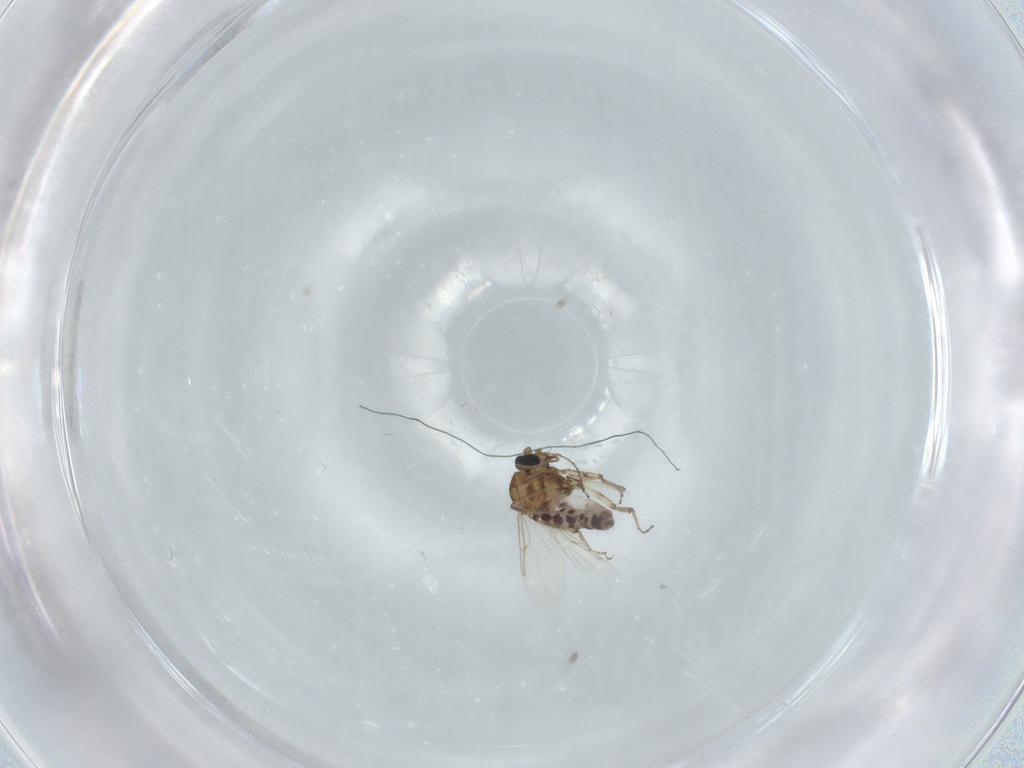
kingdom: Animalia
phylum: Arthropoda
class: Insecta
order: Diptera
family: Ceratopogonidae
